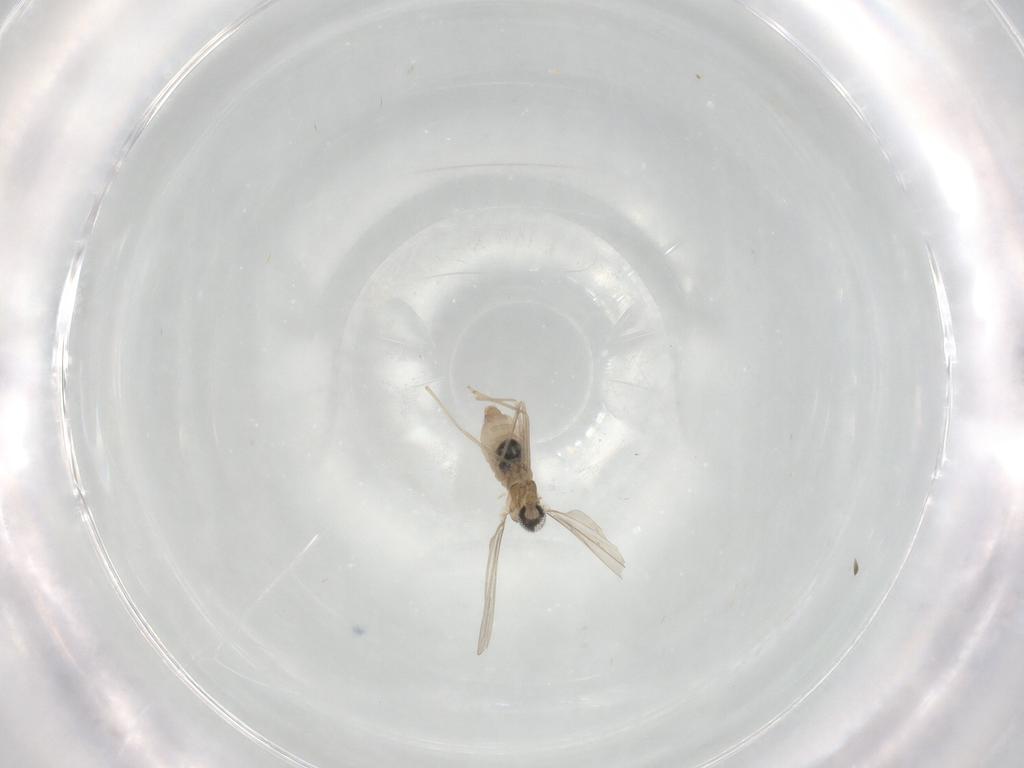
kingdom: Animalia
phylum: Arthropoda
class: Insecta
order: Diptera
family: Cecidomyiidae
